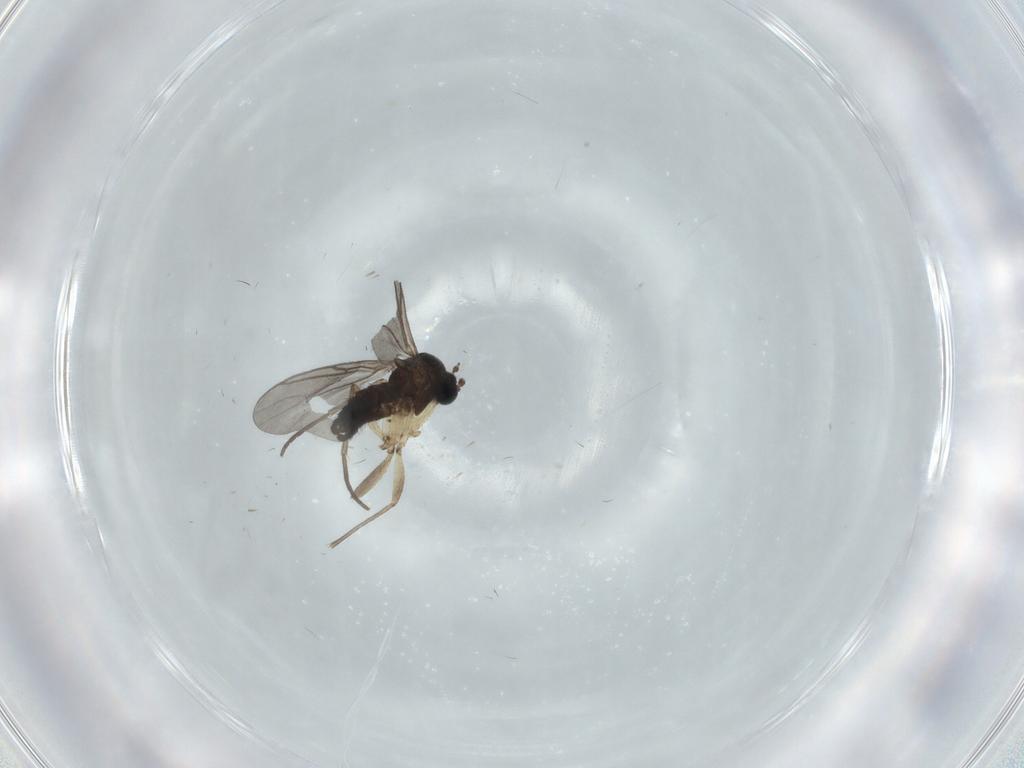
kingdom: Animalia
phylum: Arthropoda
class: Insecta
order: Diptera
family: Sciaridae
